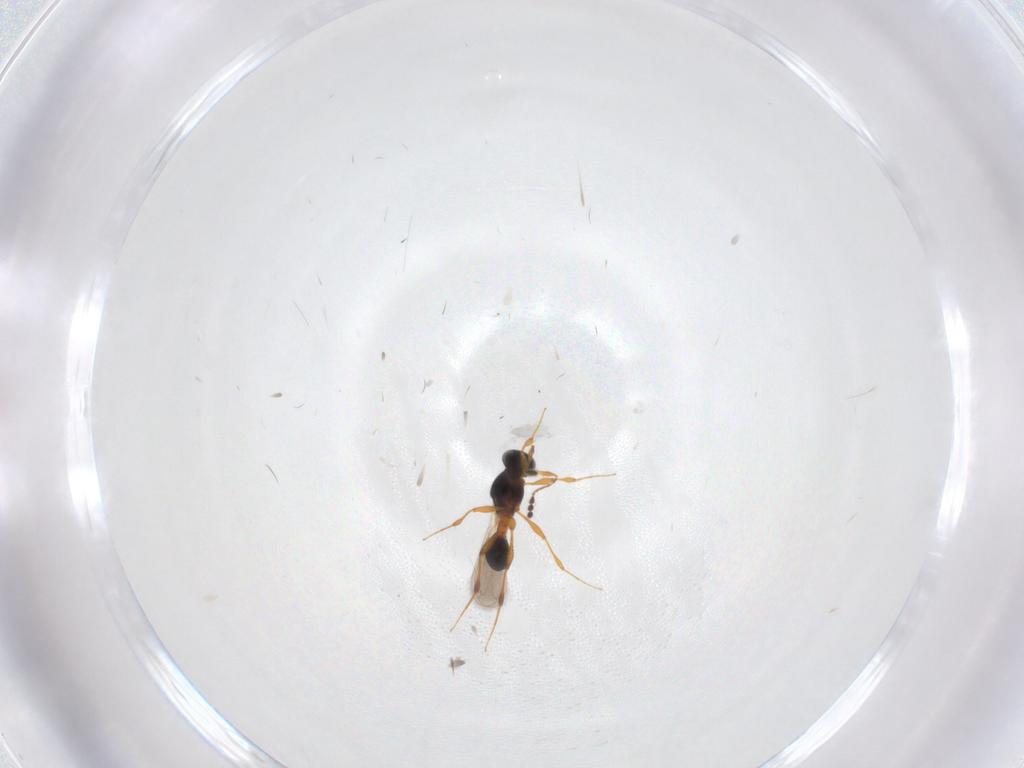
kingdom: Animalia
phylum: Arthropoda
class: Insecta
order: Hymenoptera
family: Platygastridae
